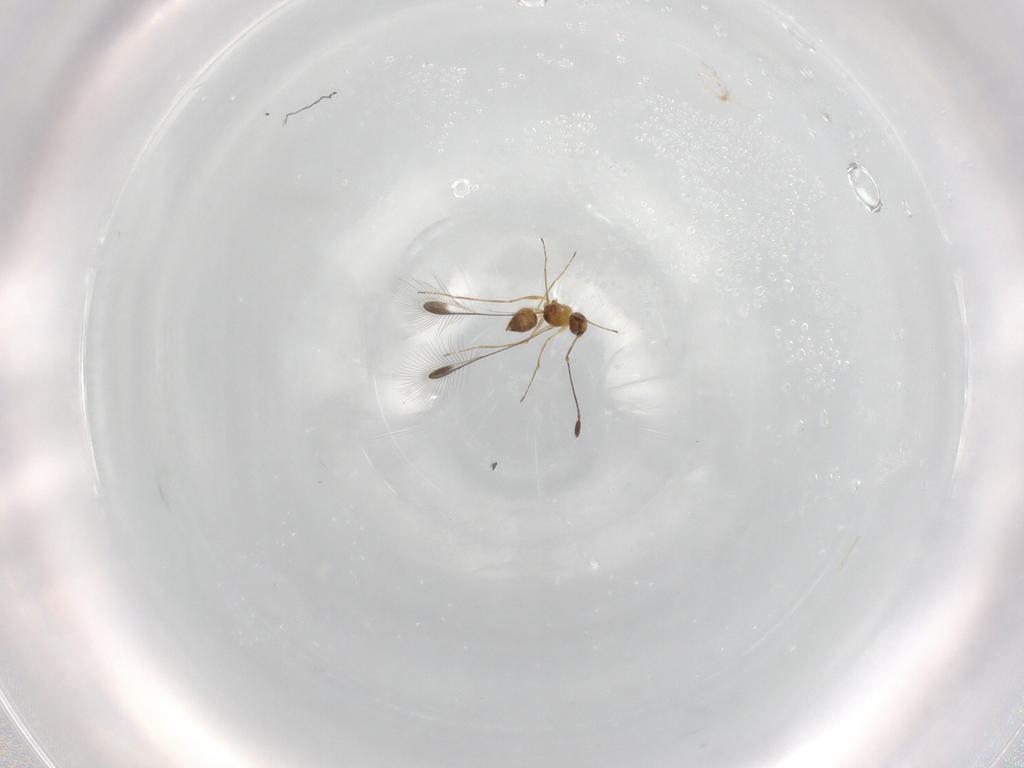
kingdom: Animalia
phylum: Arthropoda
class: Insecta
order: Hymenoptera
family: Mymaridae
